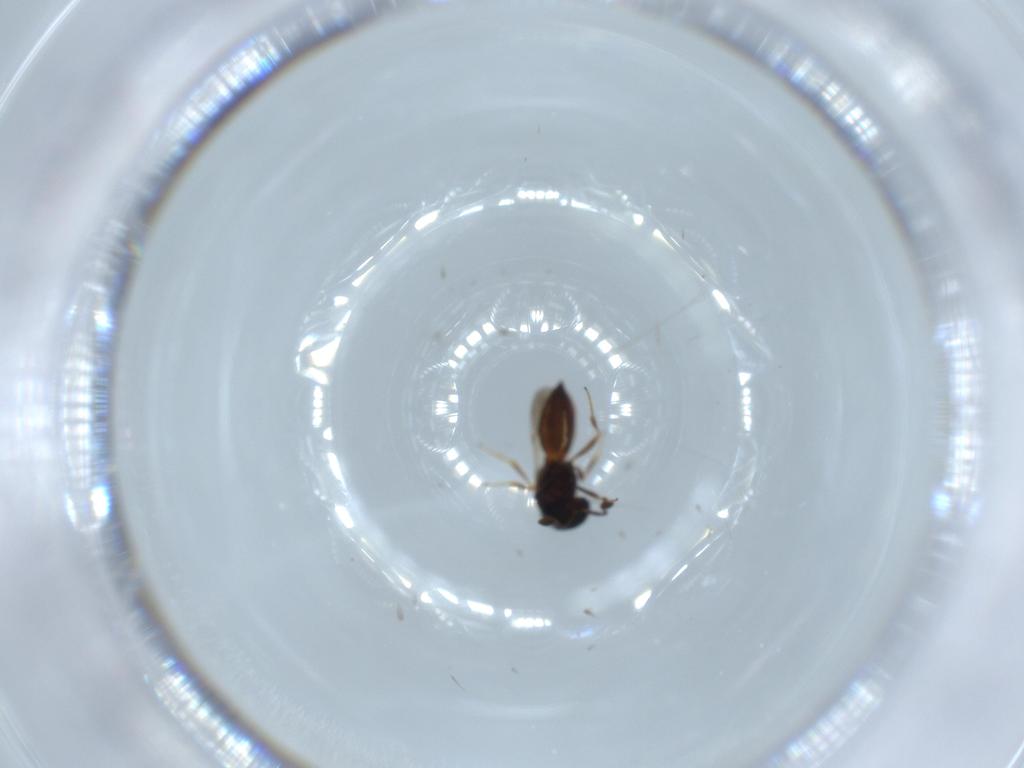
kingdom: Animalia
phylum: Arthropoda
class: Insecta
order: Hymenoptera
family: Scelionidae
